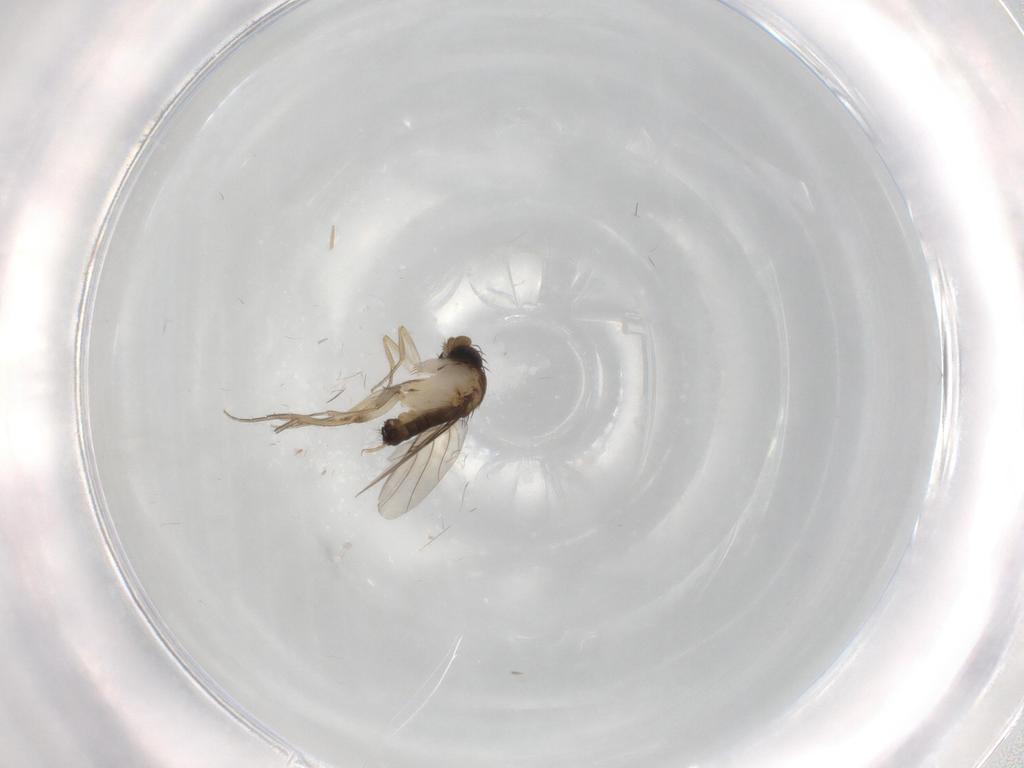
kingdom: Animalia
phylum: Arthropoda
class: Insecta
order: Diptera
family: Phoridae
